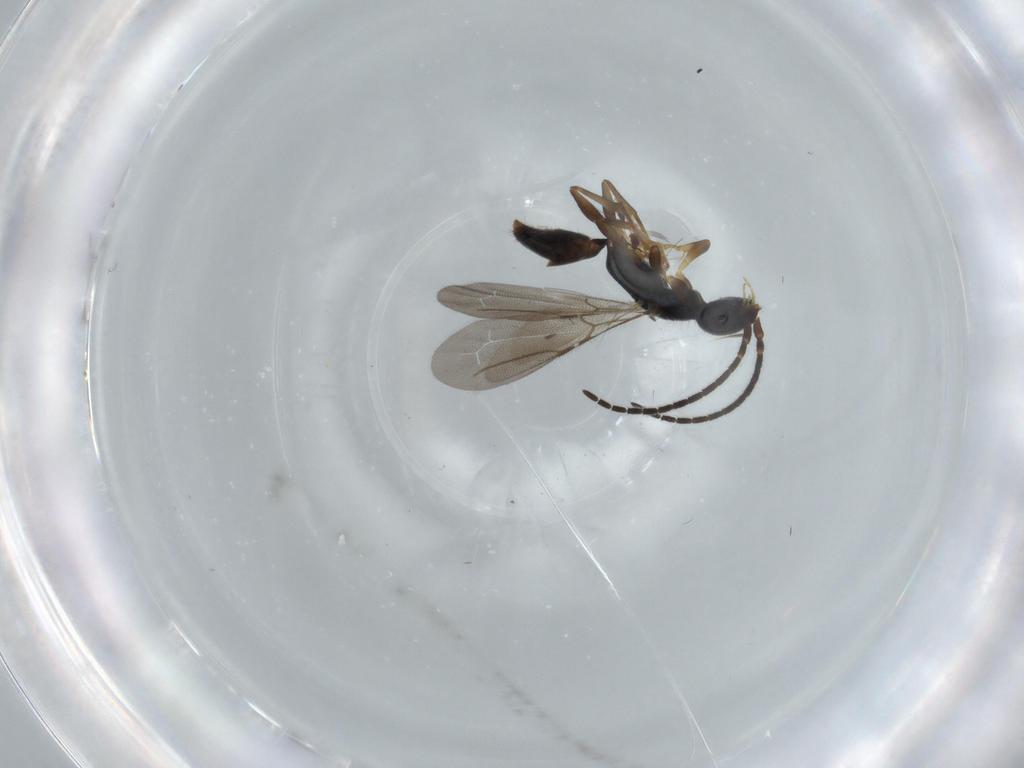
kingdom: Animalia
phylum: Arthropoda
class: Insecta
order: Hymenoptera
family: Bethylidae
